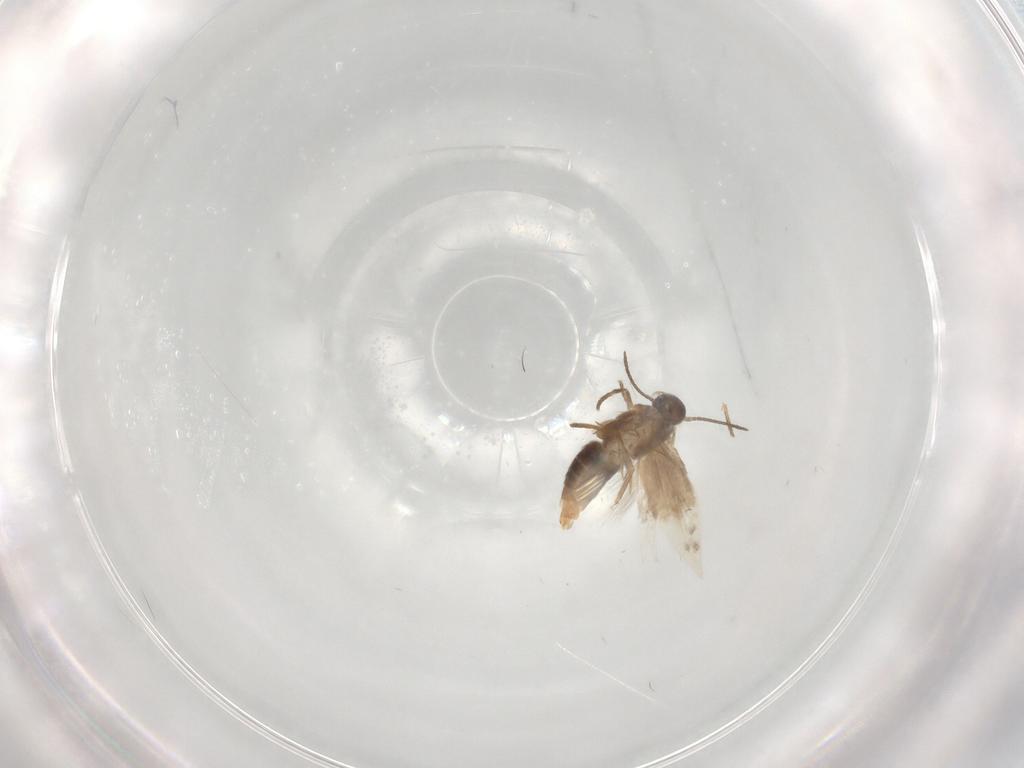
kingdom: Animalia
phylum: Arthropoda
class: Insecta
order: Lepidoptera
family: Heliozelidae
